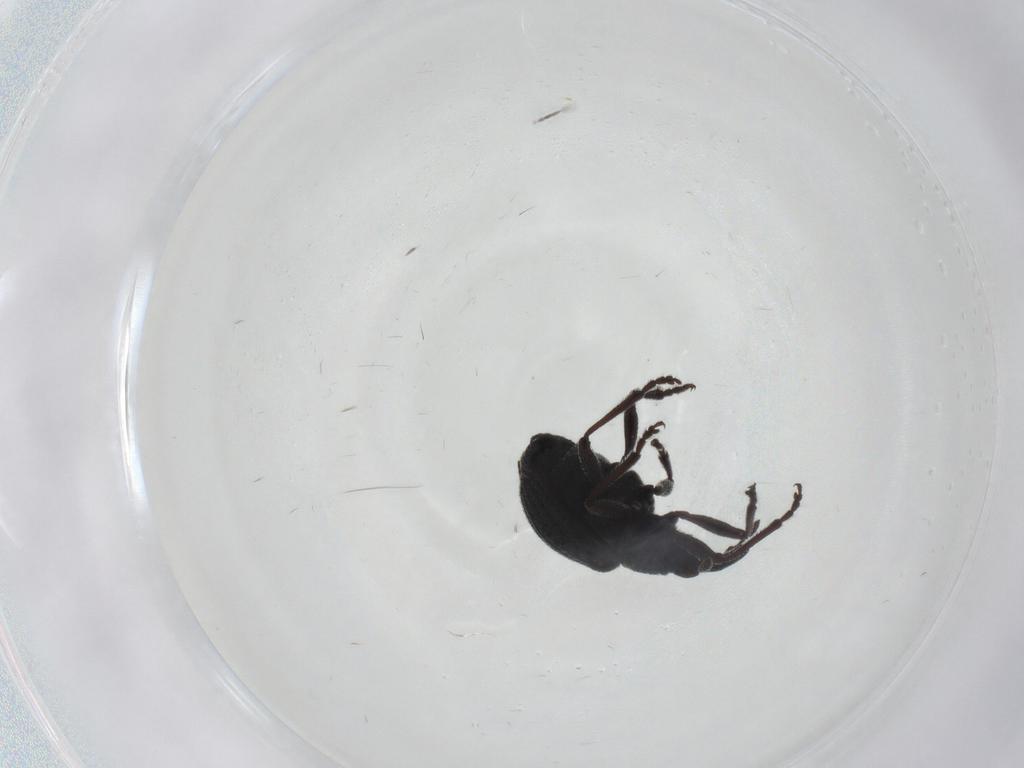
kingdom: Animalia
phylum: Arthropoda
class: Insecta
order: Coleoptera
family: Brentidae
